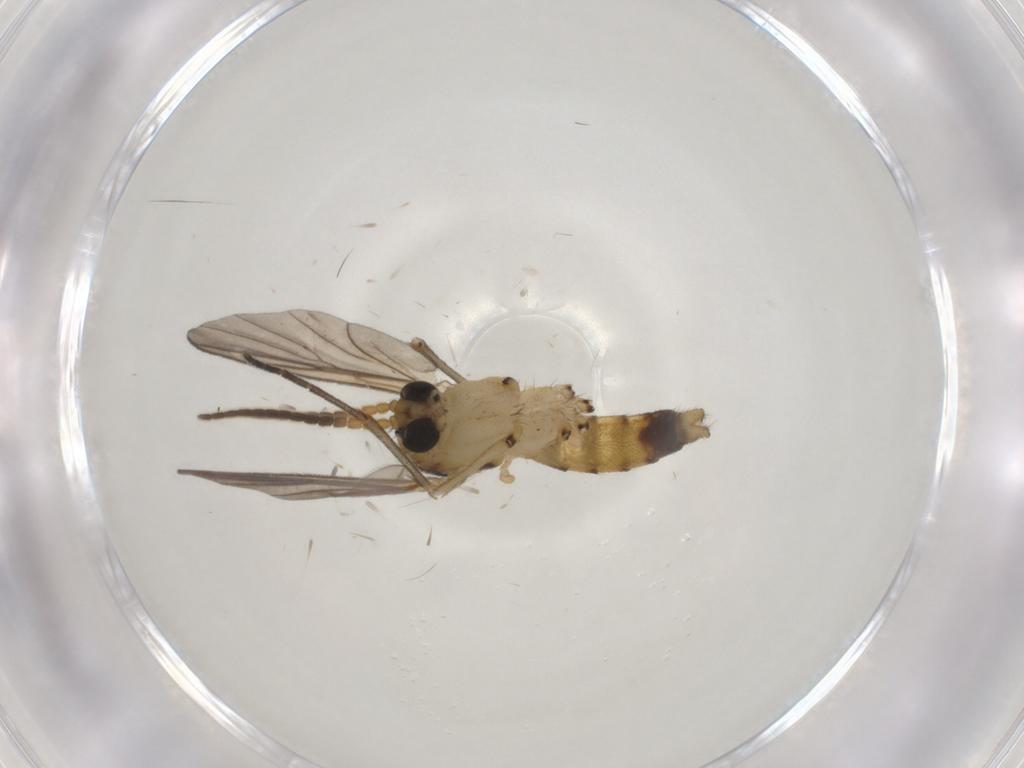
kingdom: Animalia
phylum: Arthropoda
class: Insecta
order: Diptera
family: Mycetophilidae
